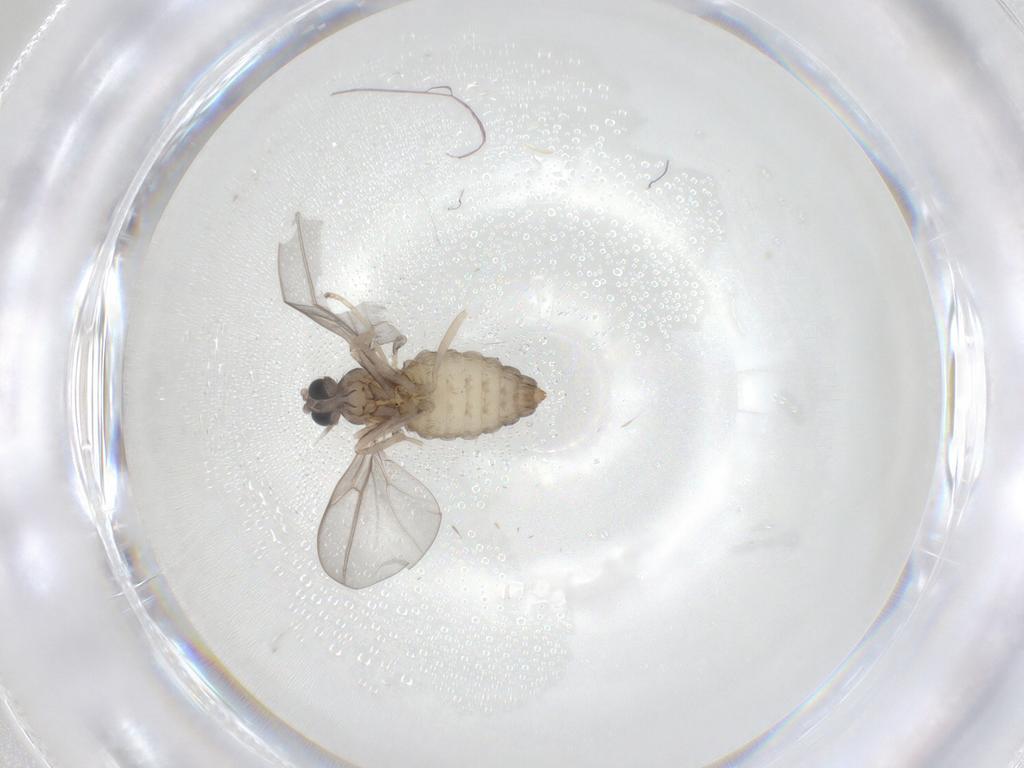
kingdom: Animalia
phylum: Arthropoda
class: Insecta
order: Diptera
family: Cecidomyiidae
